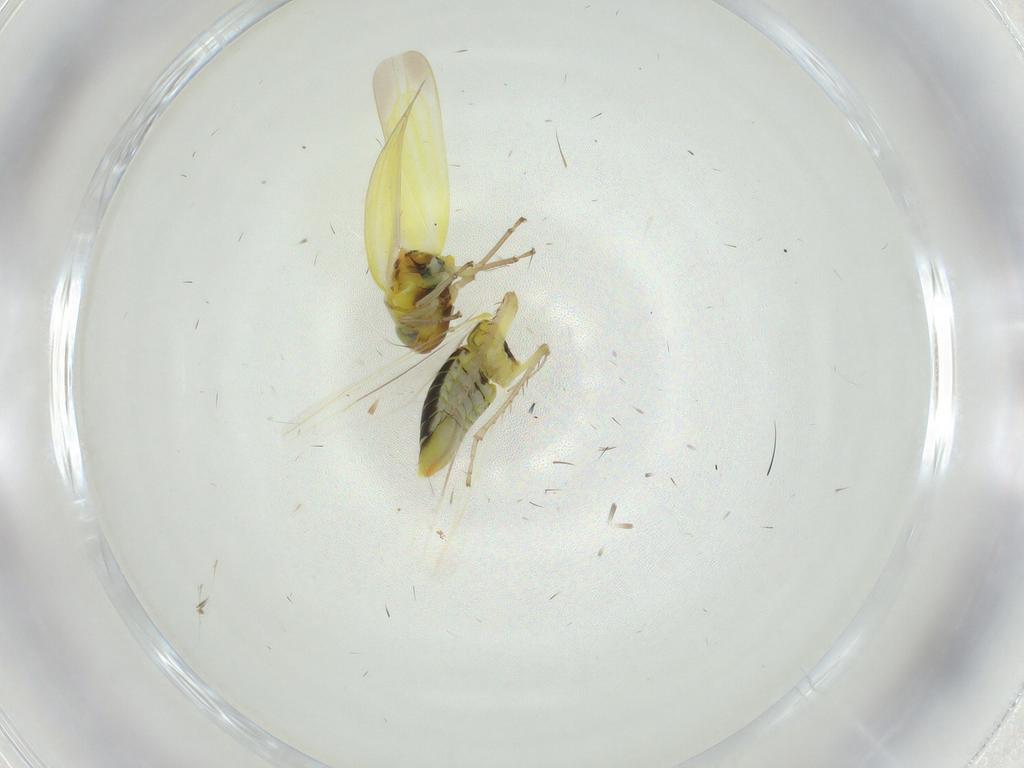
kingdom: Animalia
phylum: Arthropoda
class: Insecta
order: Hemiptera
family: Cicadellidae
